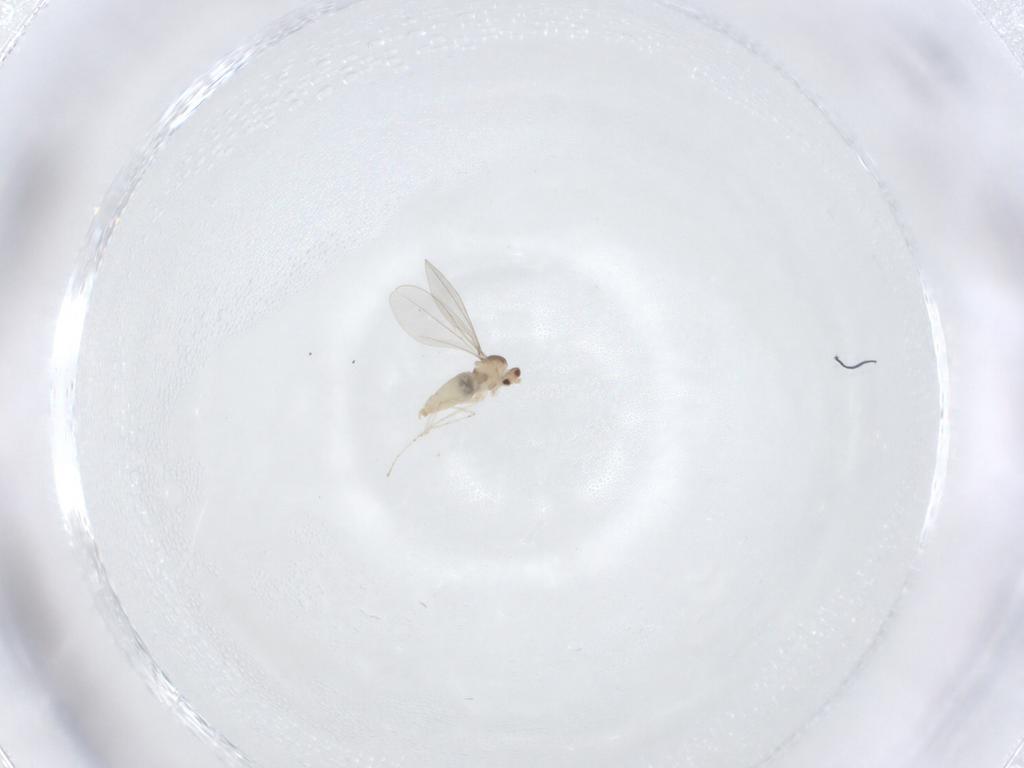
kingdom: Animalia
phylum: Arthropoda
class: Insecta
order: Diptera
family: Cecidomyiidae
